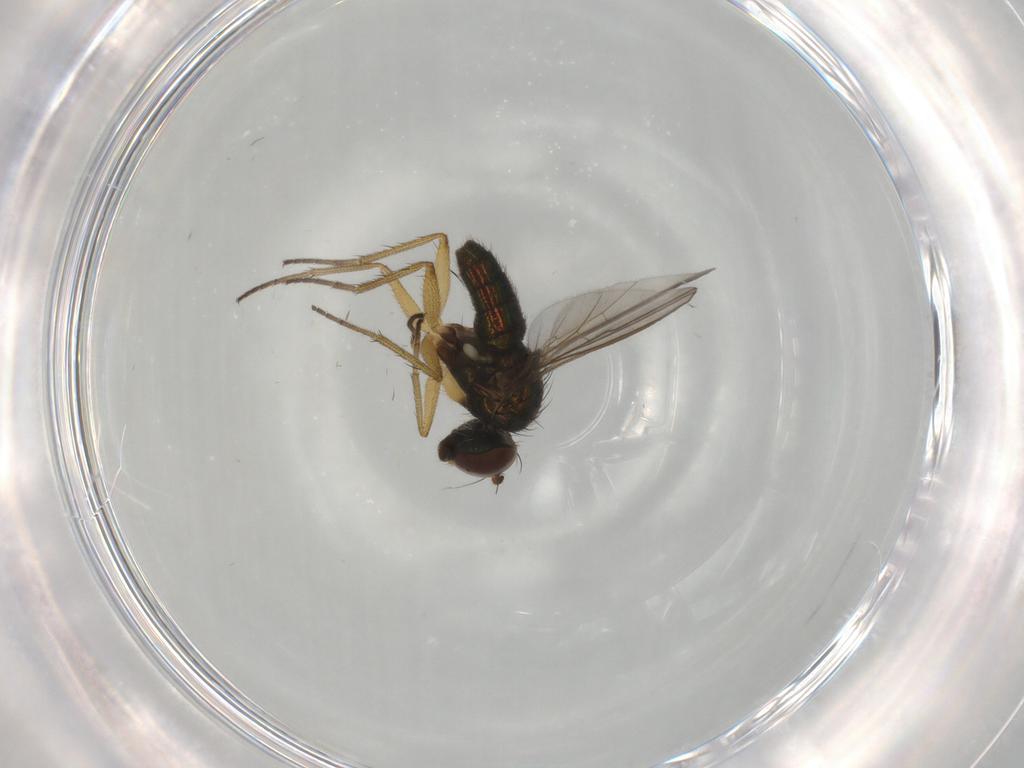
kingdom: Animalia
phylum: Arthropoda
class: Insecta
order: Diptera
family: Dolichopodidae
